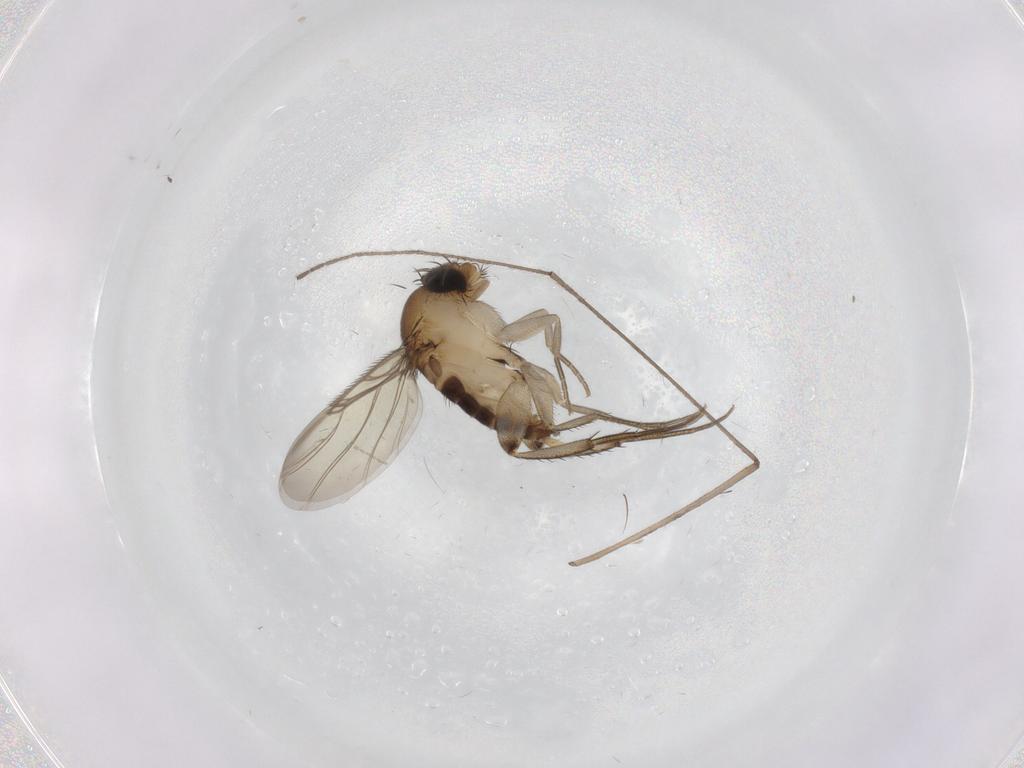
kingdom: Animalia
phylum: Arthropoda
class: Insecta
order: Diptera
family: Phoridae
